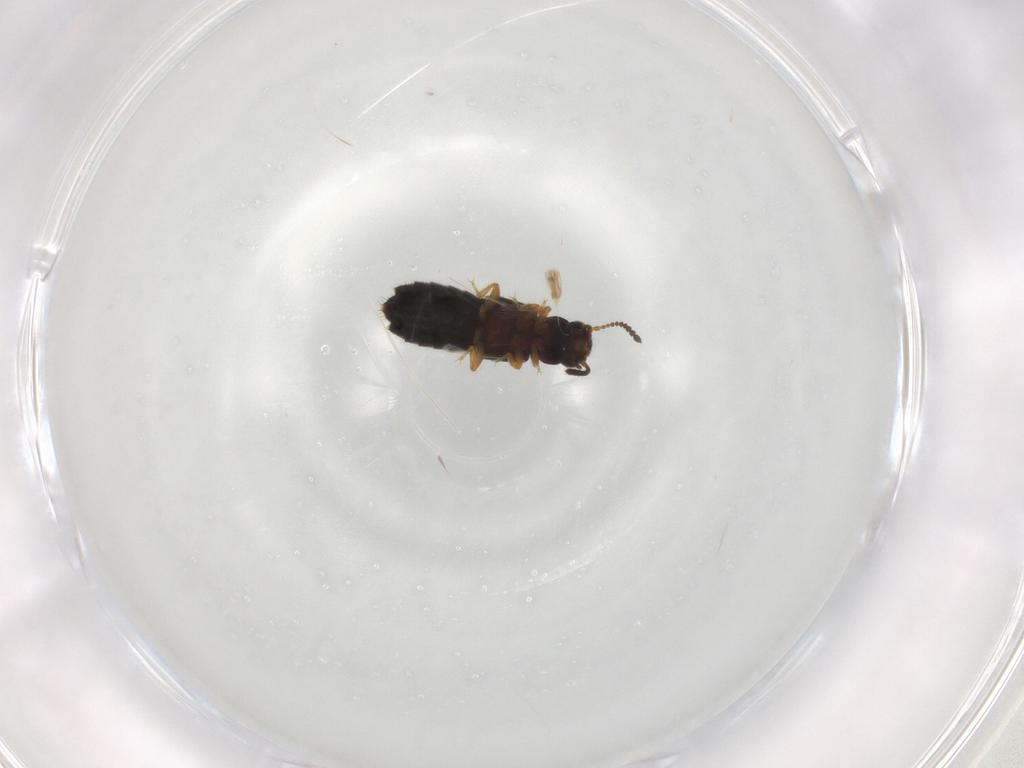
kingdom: Animalia
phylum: Arthropoda
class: Insecta
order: Coleoptera
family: Staphylinidae
